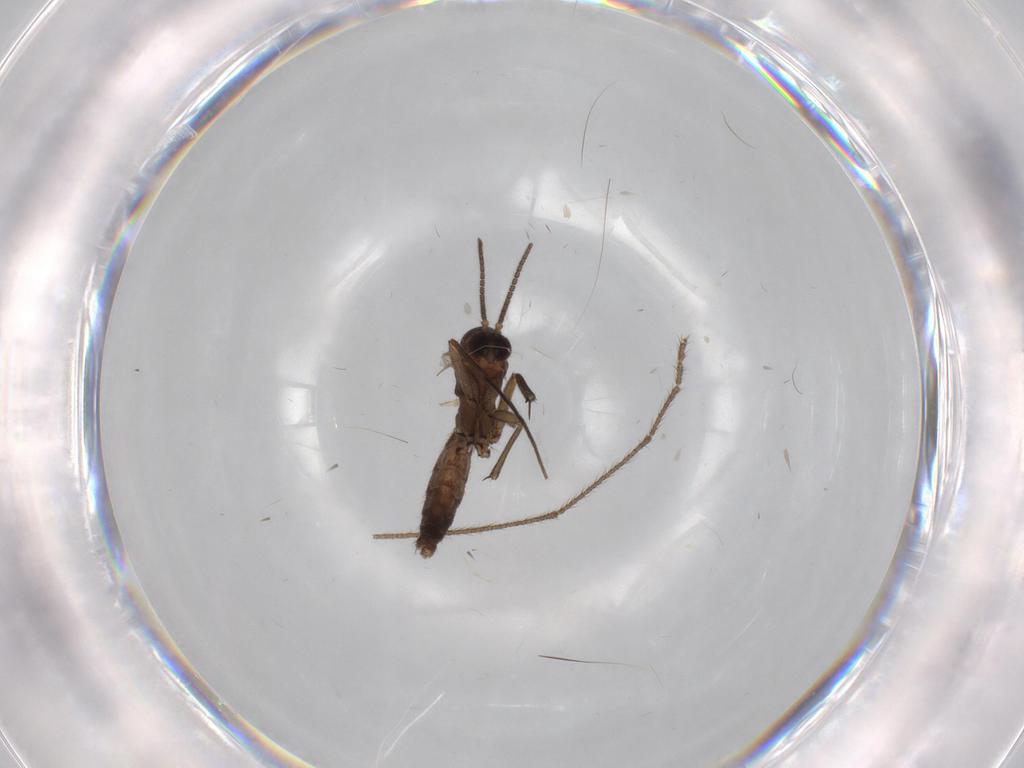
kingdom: Animalia
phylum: Arthropoda
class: Insecta
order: Diptera
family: Mycetophilidae
